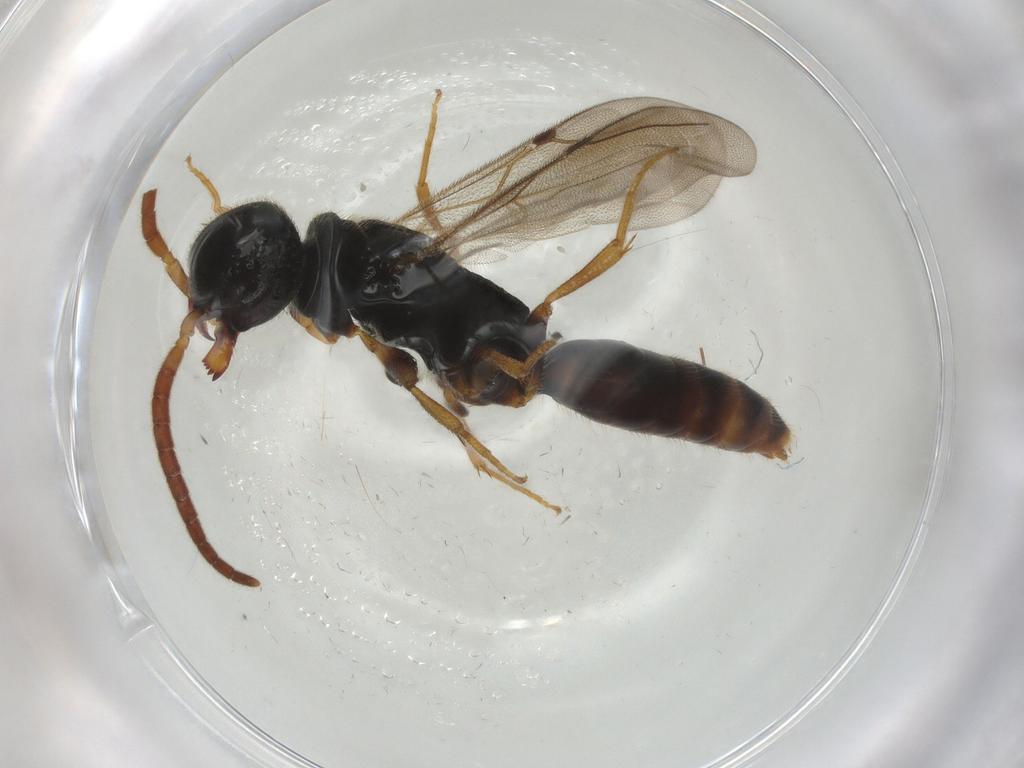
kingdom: Animalia
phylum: Arthropoda
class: Insecta
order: Hymenoptera
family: Bethylidae
